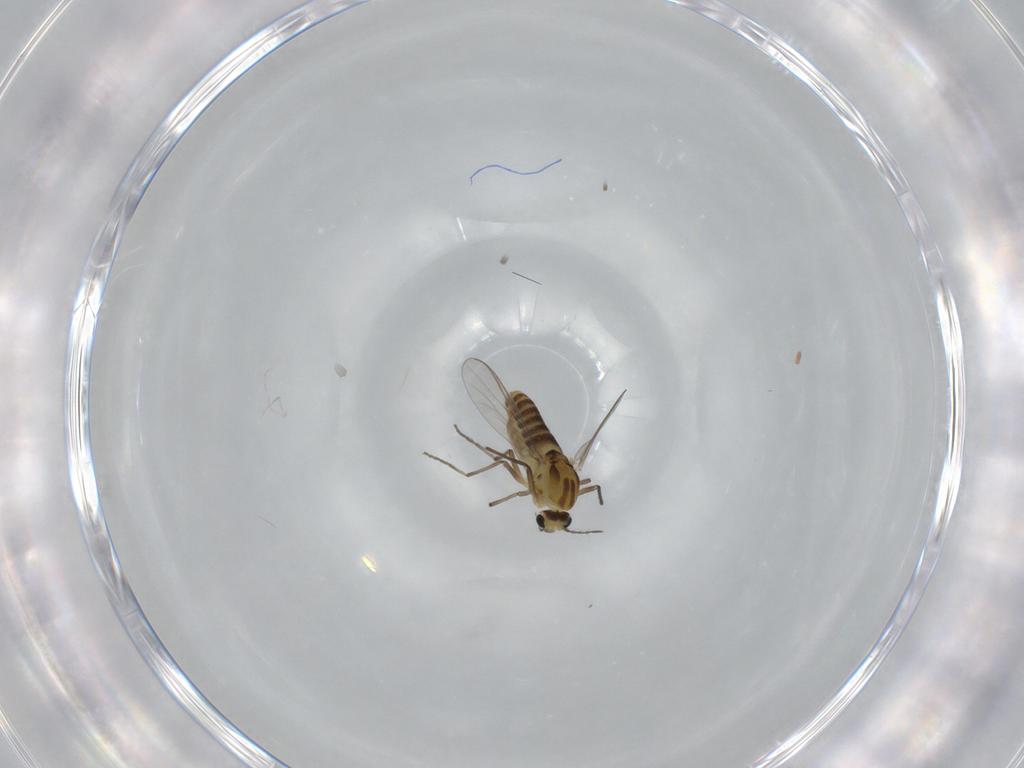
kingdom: Animalia
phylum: Arthropoda
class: Insecta
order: Diptera
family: Chironomidae
